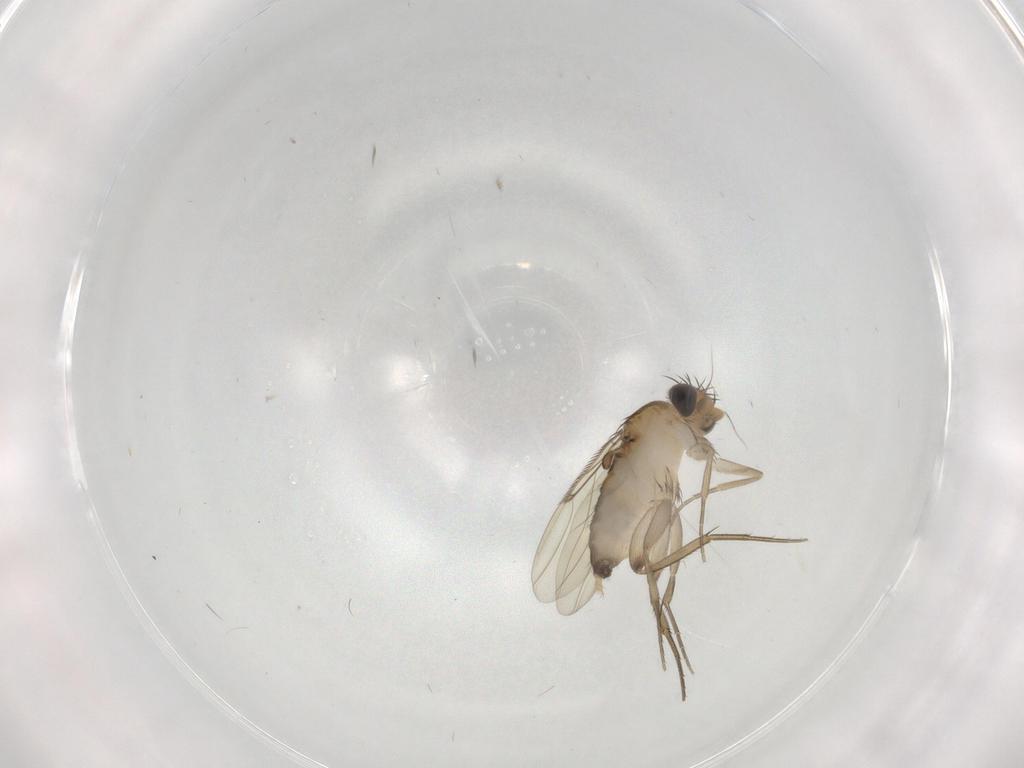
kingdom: Animalia
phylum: Arthropoda
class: Insecta
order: Diptera
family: Phoridae
